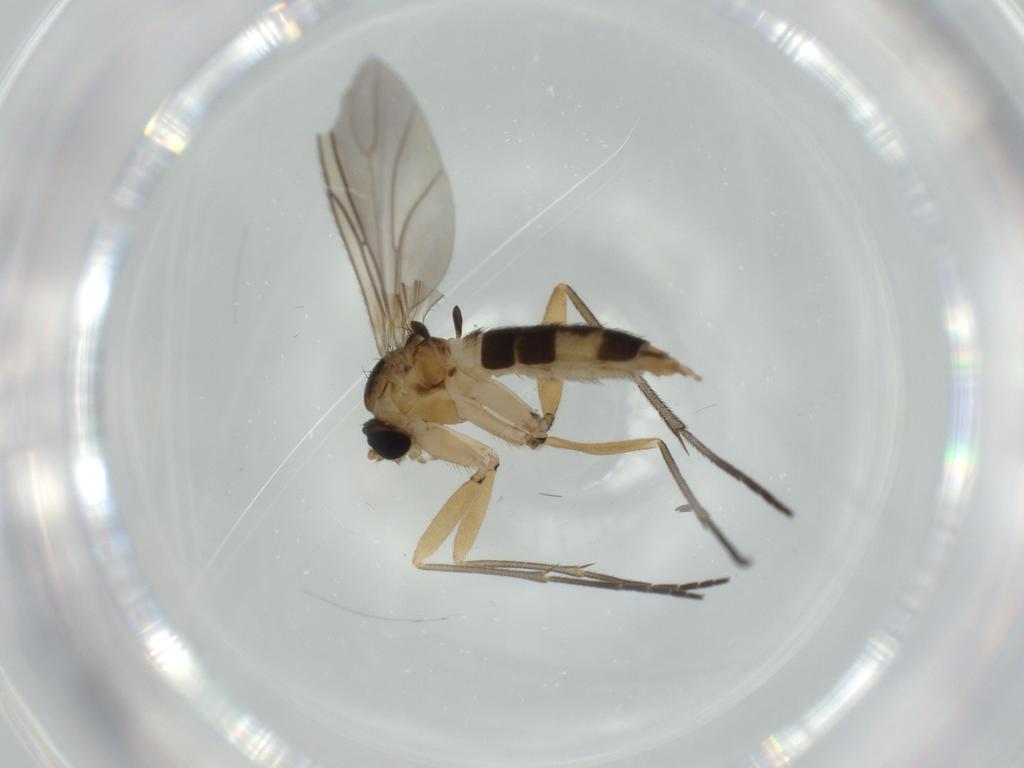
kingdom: Animalia
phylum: Arthropoda
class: Insecta
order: Diptera
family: Sciaridae
